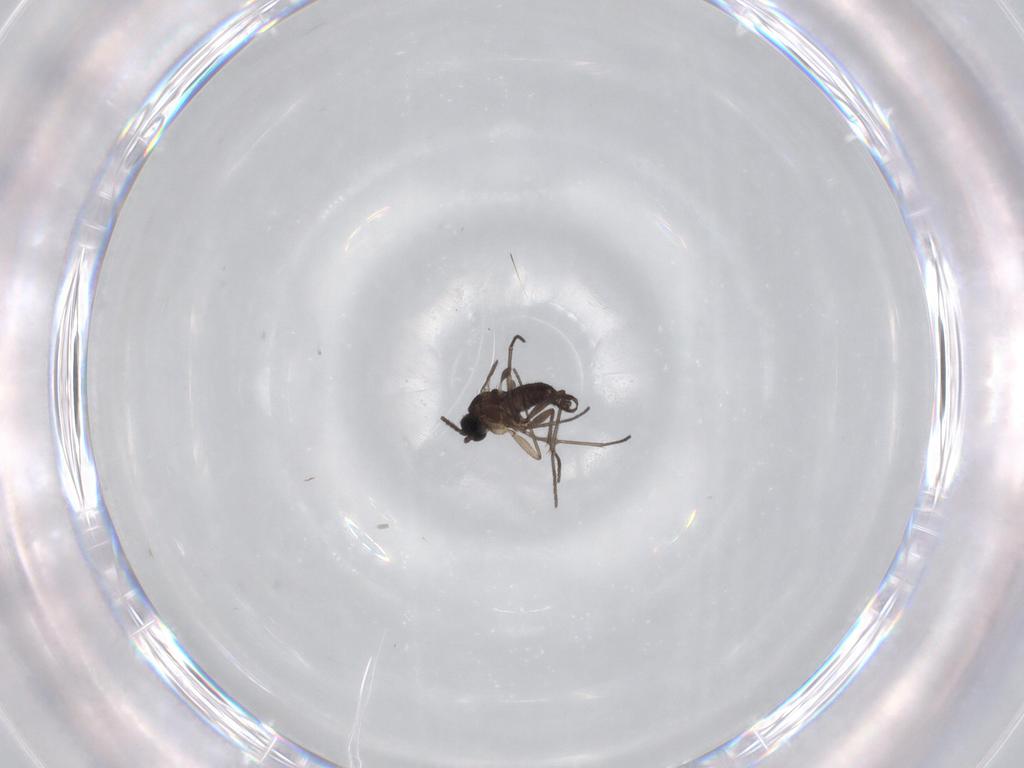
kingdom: Animalia
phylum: Arthropoda
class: Insecta
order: Diptera
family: Sciaridae
